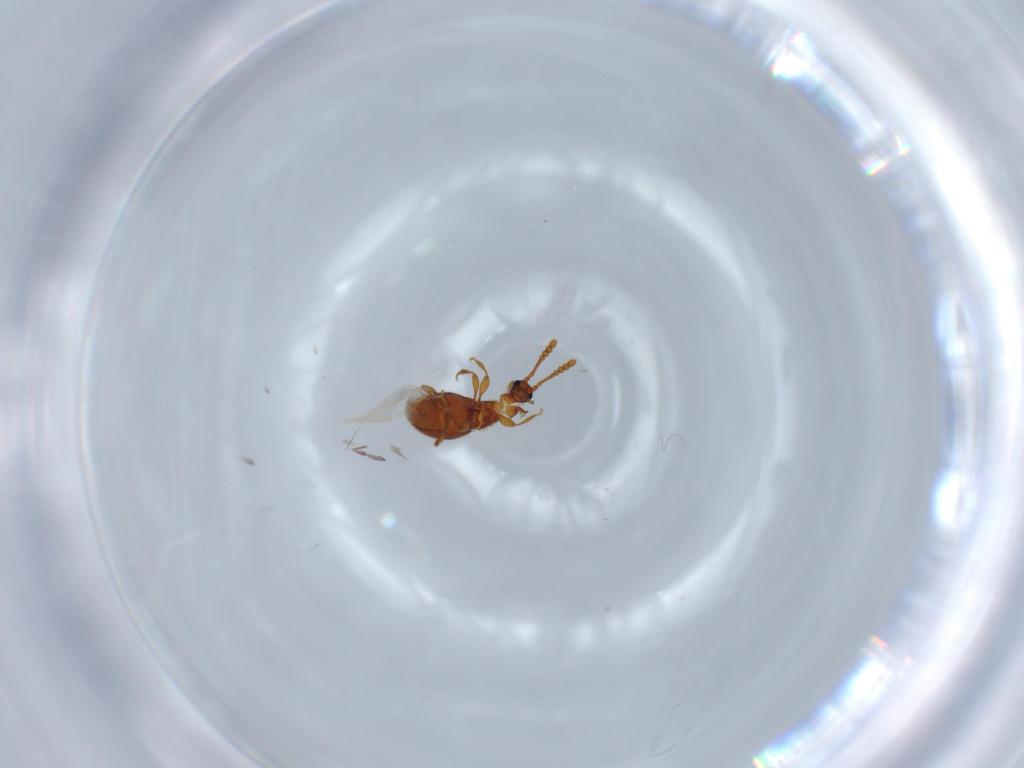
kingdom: Animalia
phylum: Arthropoda
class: Insecta
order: Coleoptera
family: Staphylinidae
